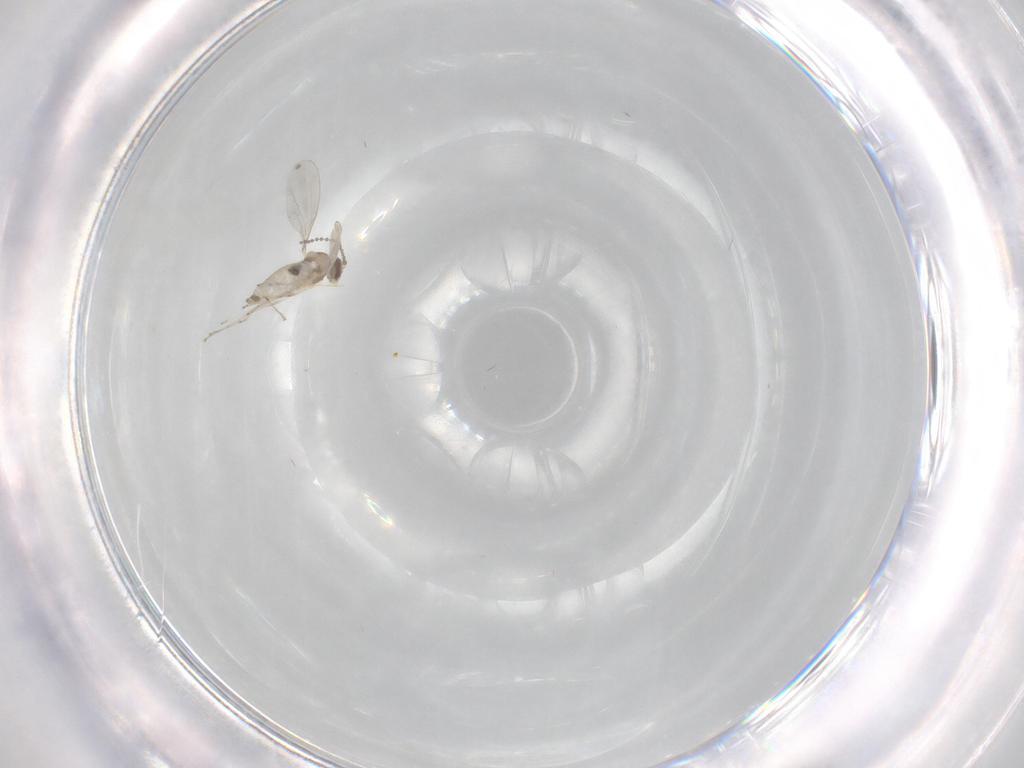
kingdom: Animalia
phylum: Arthropoda
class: Insecta
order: Diptera
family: Cecidomyiidae
